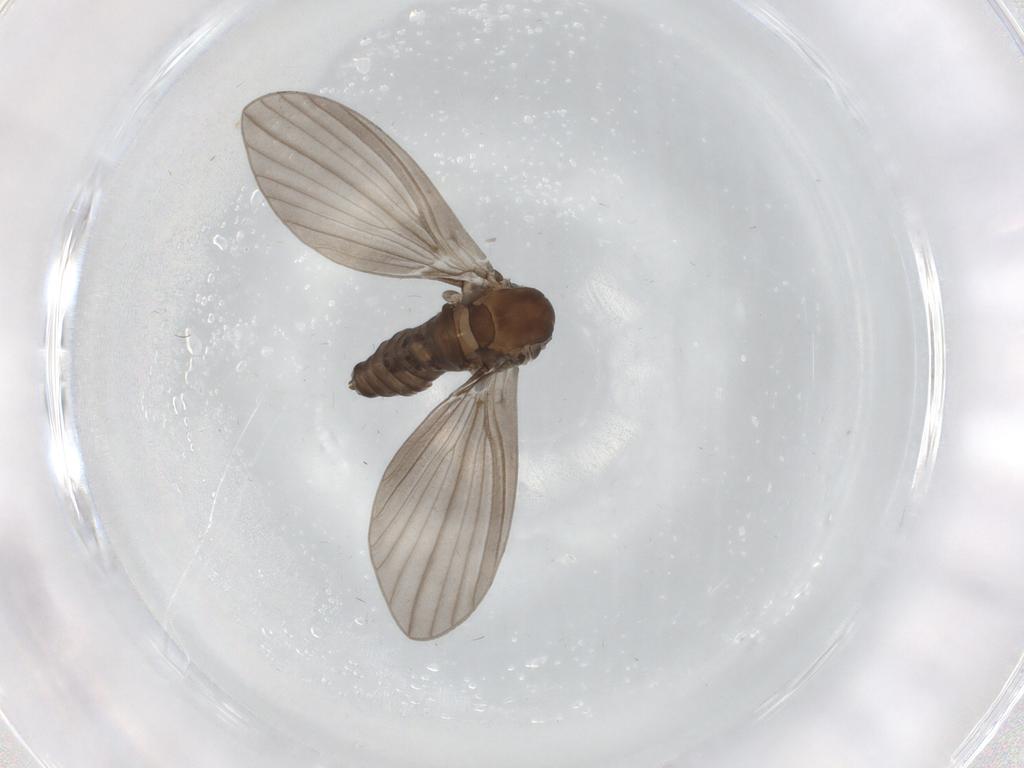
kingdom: Animalia
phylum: Arthropoda
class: Insecta
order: Diptera
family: Psychodidae
